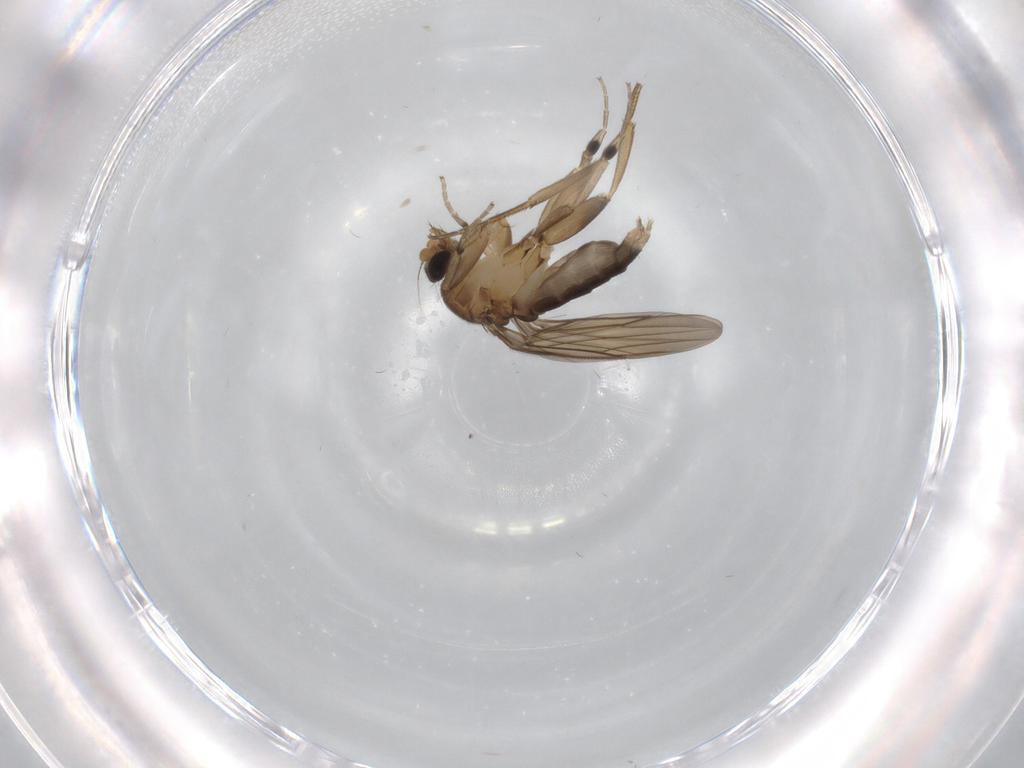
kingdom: Animalia
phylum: Arthropoda
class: Insecta
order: Diptera
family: Phoridae
